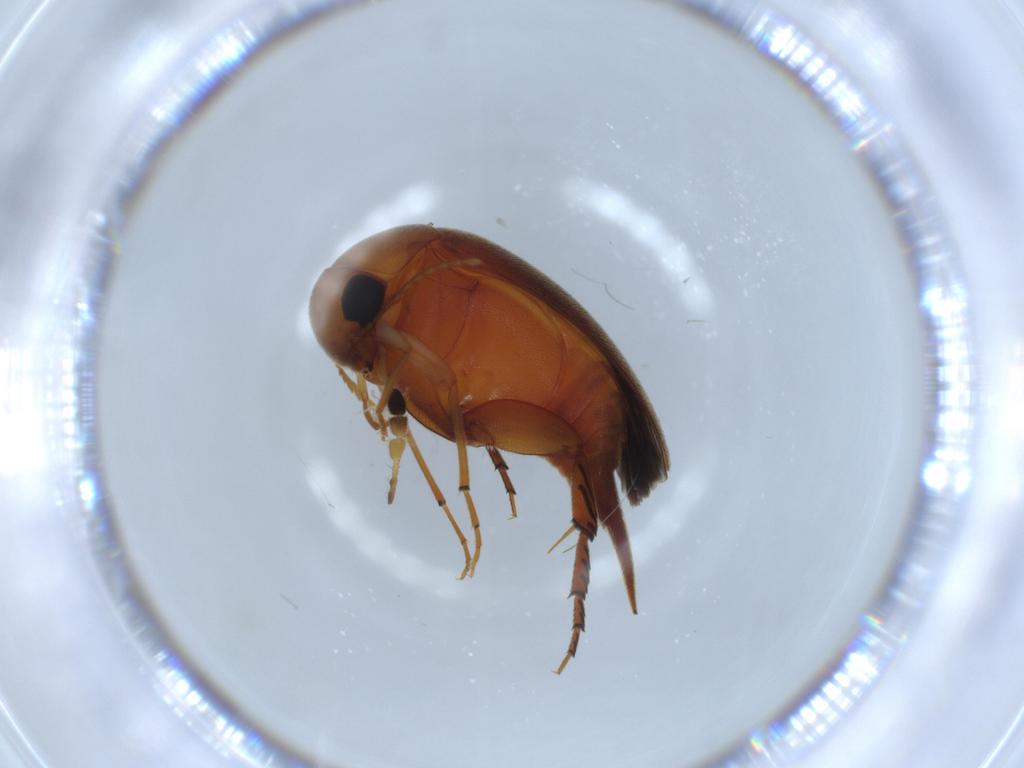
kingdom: Animalia
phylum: Arthropoda
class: Insecta
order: Coleoptera
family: Mordellidae
